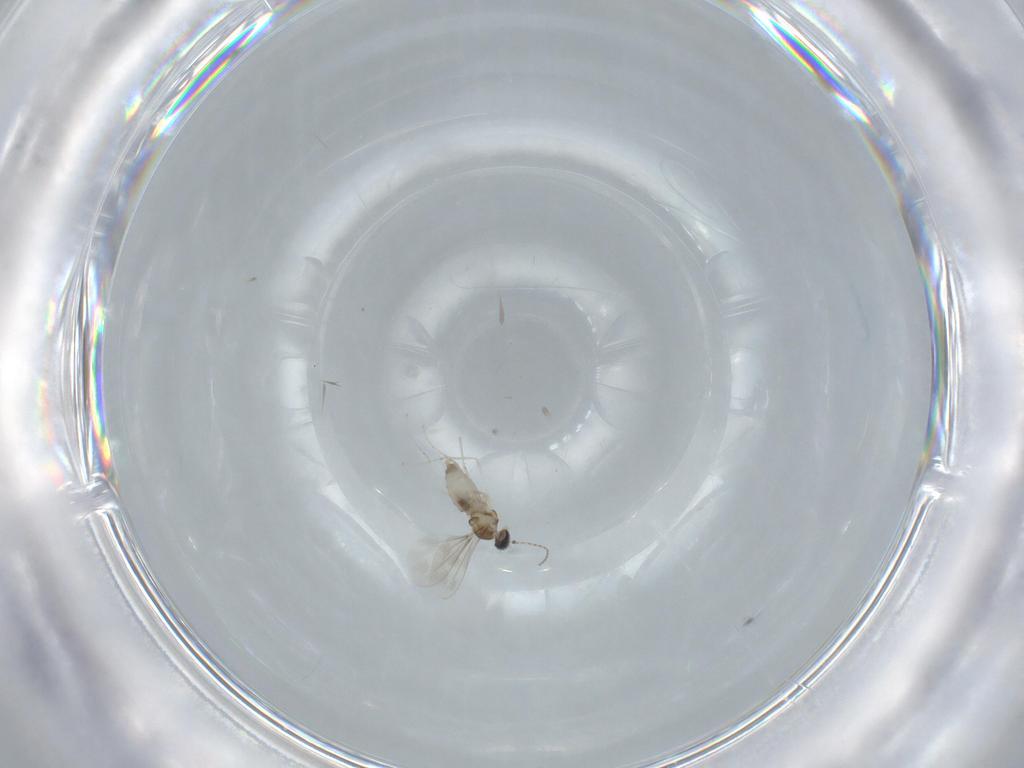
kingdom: Animalia
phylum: Arthropoda
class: Insecta
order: Diptera
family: Cecidomyiidae
